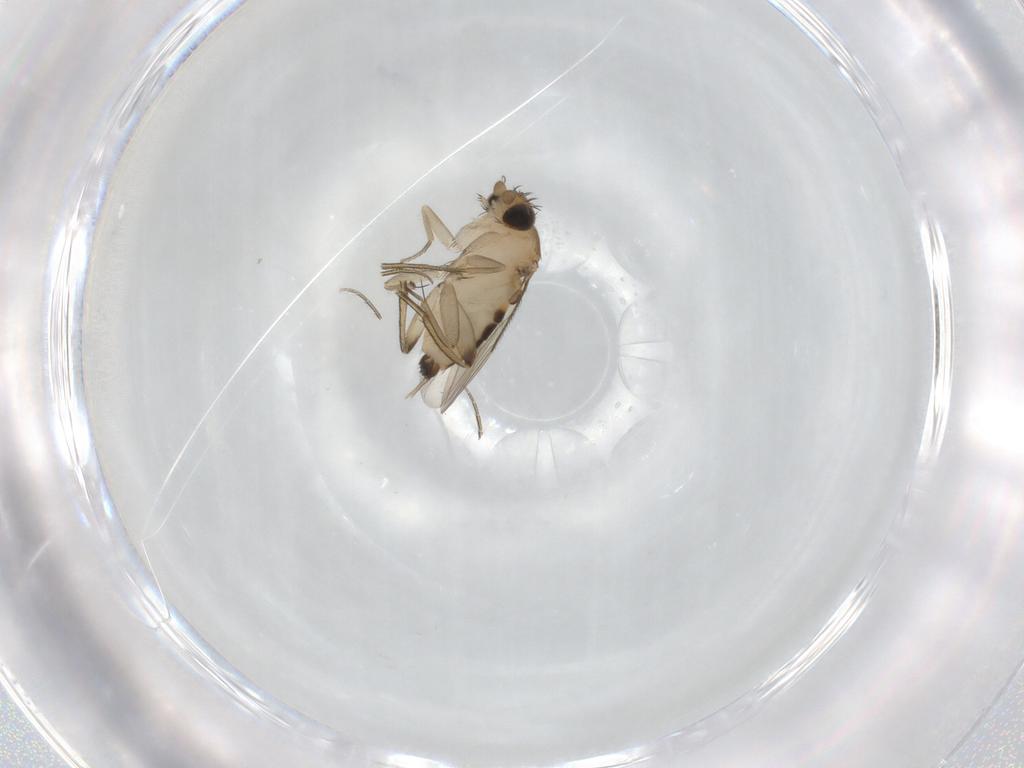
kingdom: Animalia
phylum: Arthropoda
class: Insecta
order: Diptera
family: Phoridae
